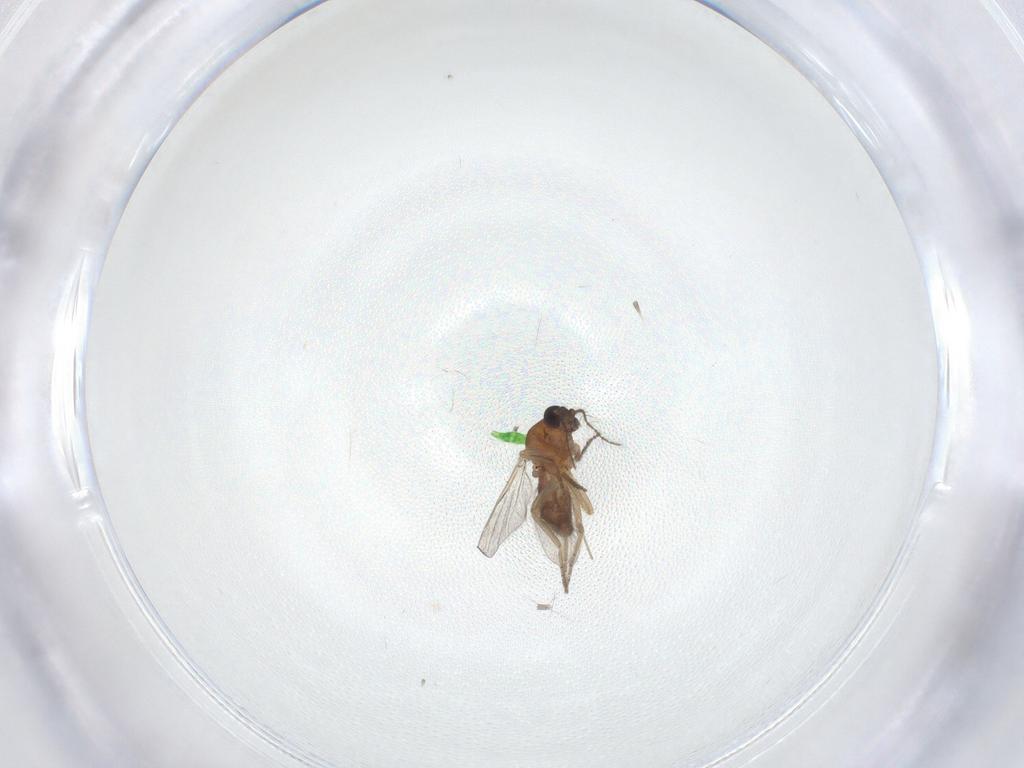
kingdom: Animalia
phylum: Arthropoda
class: Insecta
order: Diptera
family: Ceratopogonidae
